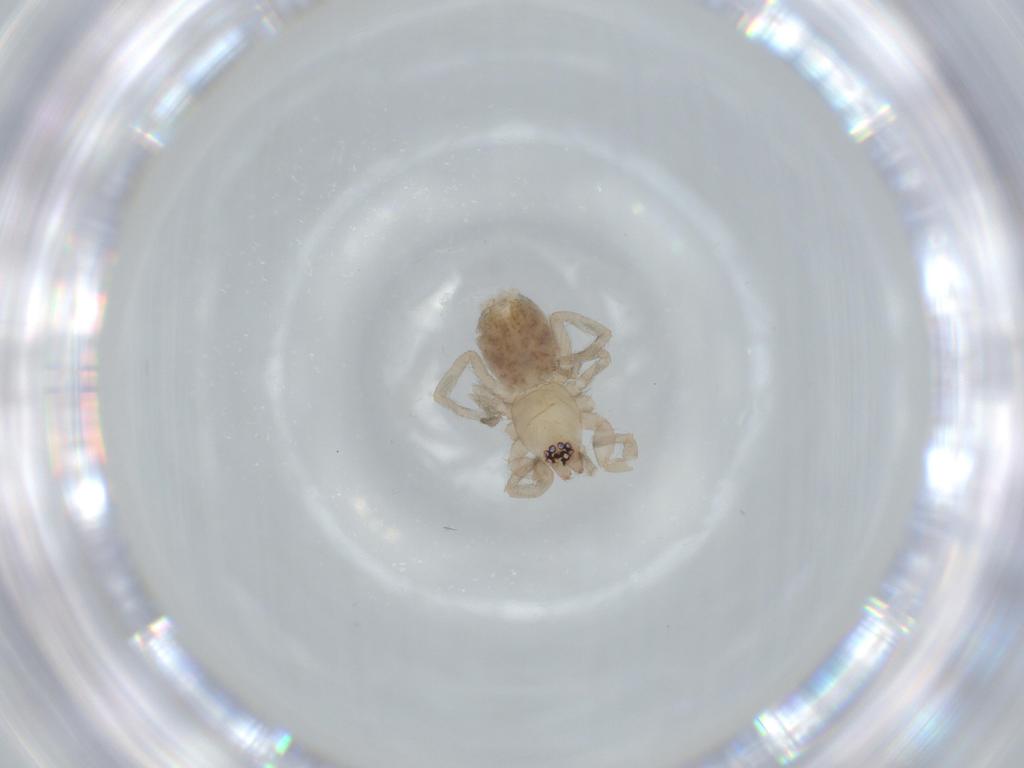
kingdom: Animalia
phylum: Arthropoda
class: Arachnida
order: Araneae
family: Gnaphosidae
